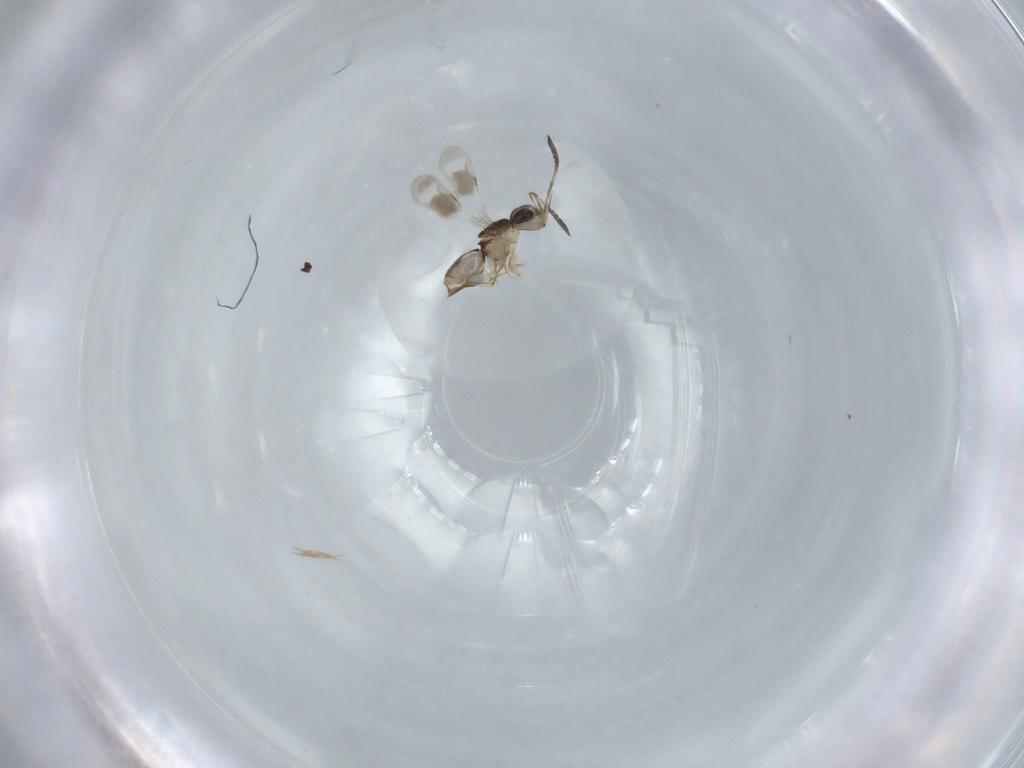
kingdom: Animalia
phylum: Arthropoda
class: Insecta
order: Hymenoptera
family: Ceraphronidae
